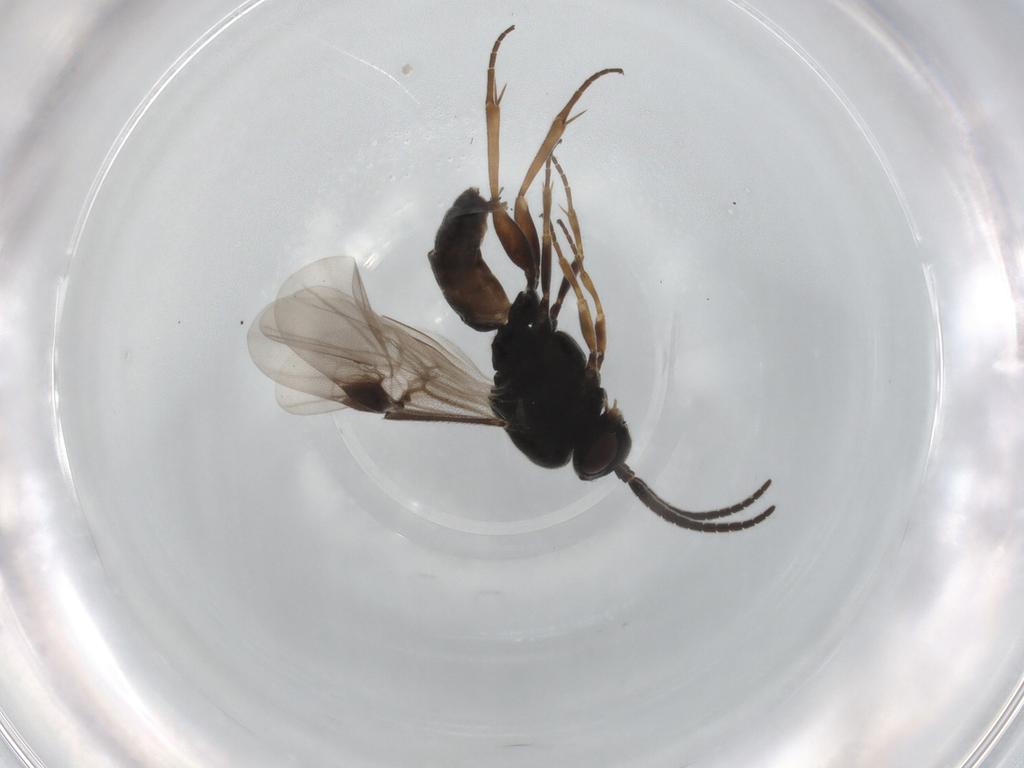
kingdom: Animalia
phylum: Arthropoda
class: Insecta
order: Hymenoptera
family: Braconidae
